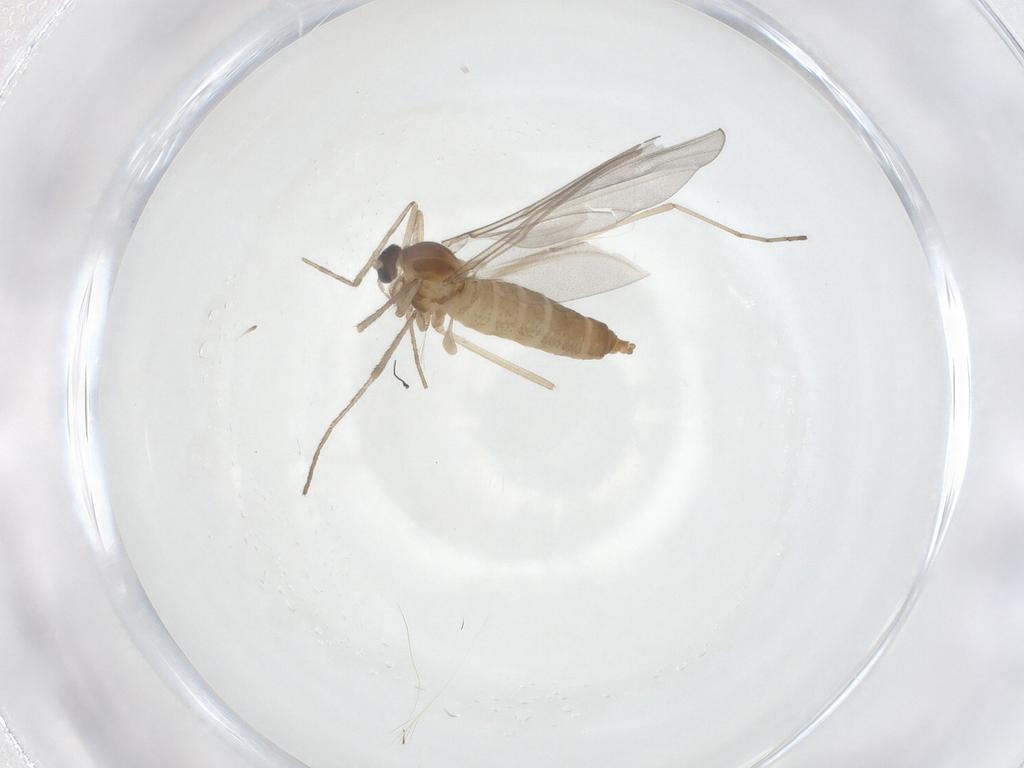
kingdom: Animalia
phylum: Arthropoda
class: Insecta
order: Diptera
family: Cecidomyiidae
